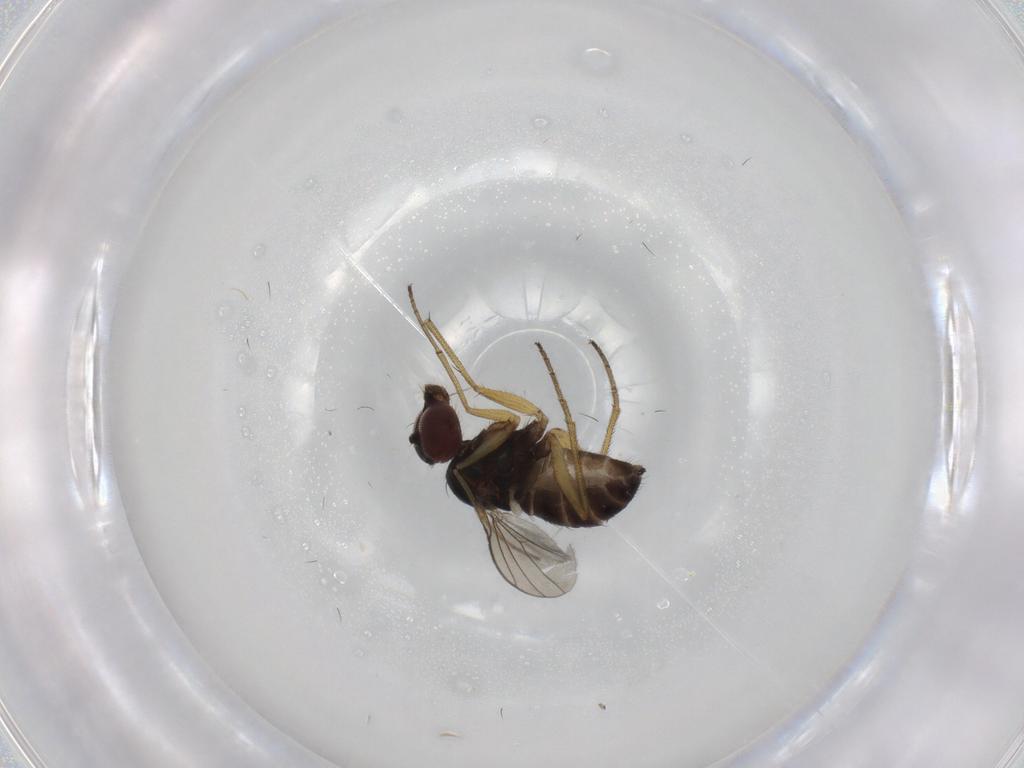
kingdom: Animalia
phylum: Arthropoda
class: Insecta
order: Diptera
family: Dolichopodidae
